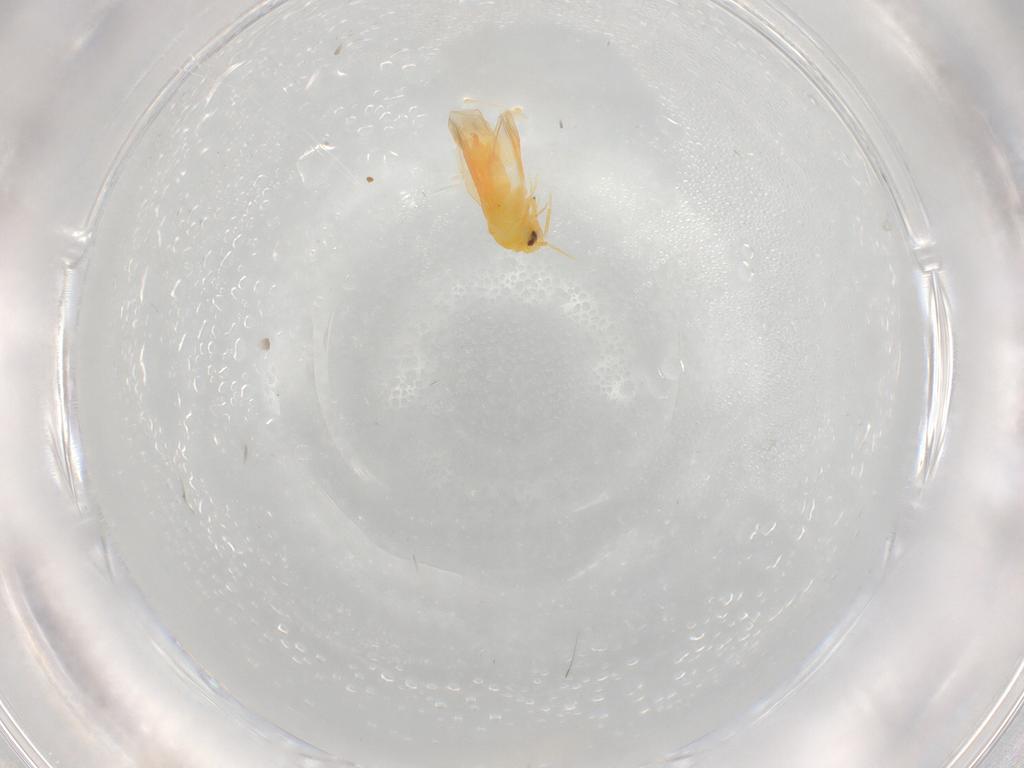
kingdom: Animalia
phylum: Arthropoda
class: Insecta
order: Hemiptera
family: Aleyrodidae
